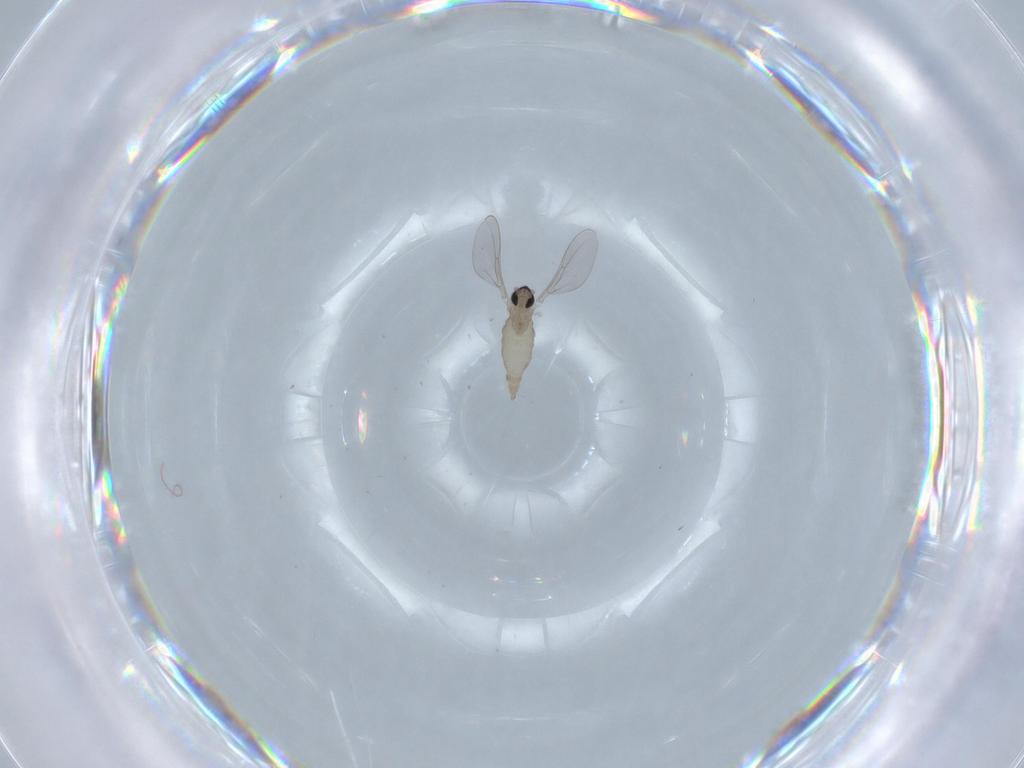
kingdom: Animalia
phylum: Arthropoda
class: Insecta
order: Diptera
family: Cecidomyiidae
